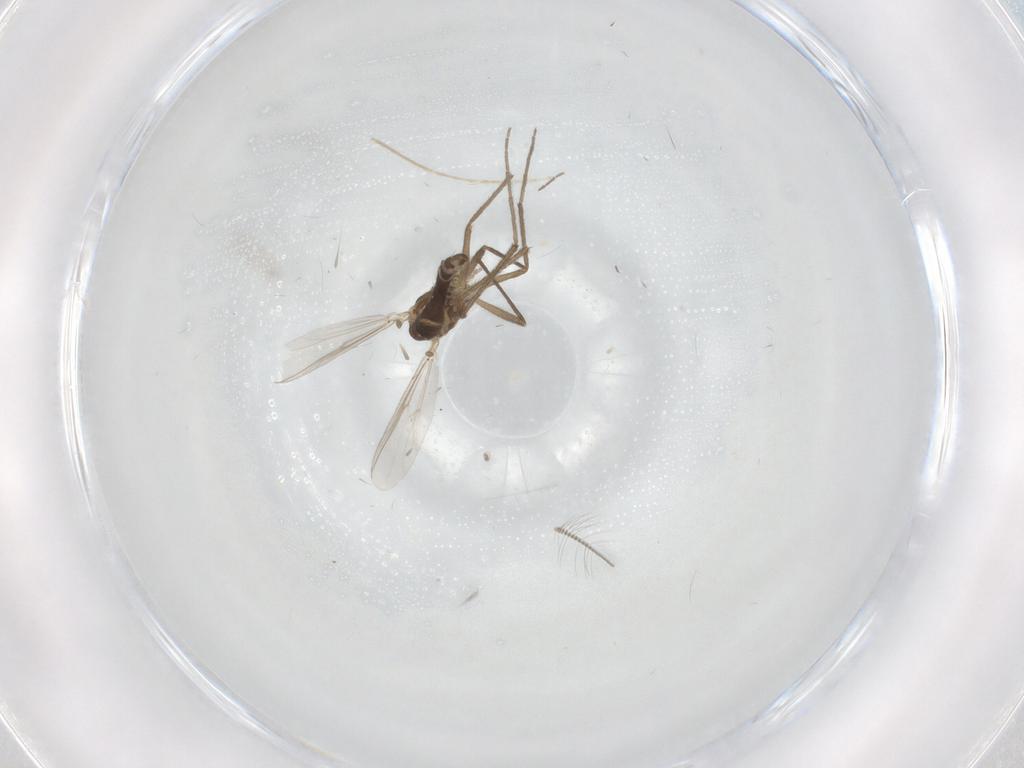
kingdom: Animalia
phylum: Arthropoda
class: Insecta
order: Diptera
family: Chironomidae
